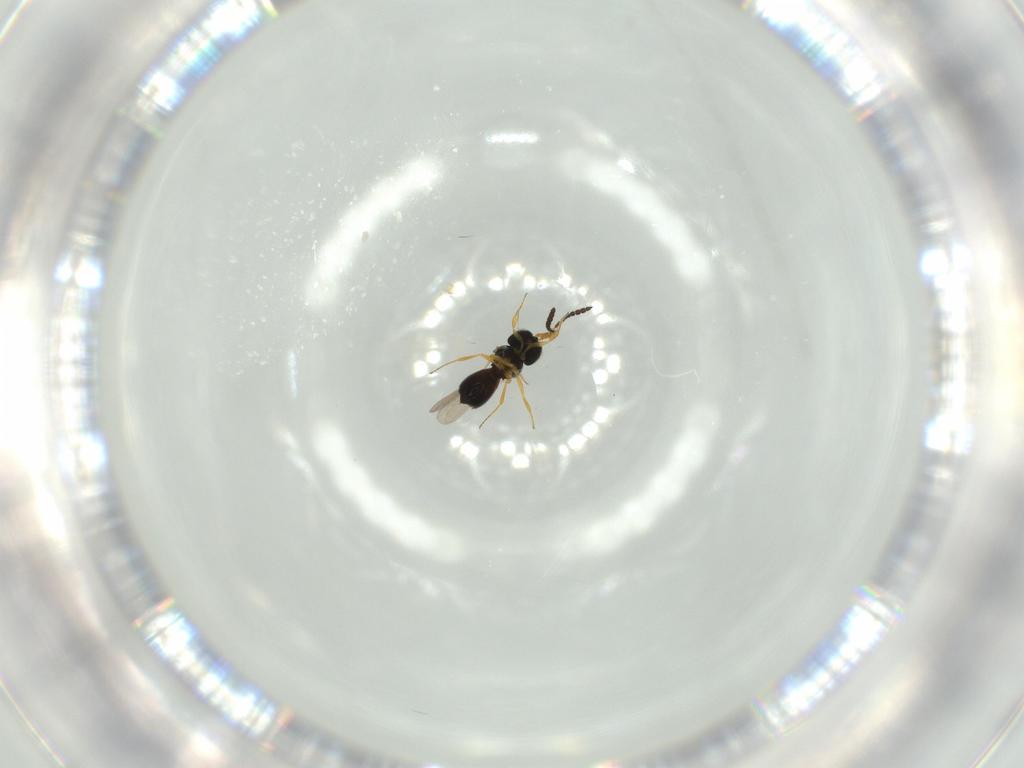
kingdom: Animalia
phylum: Arthropoda
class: Insecta
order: Hymenoptera
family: Scelionidae
